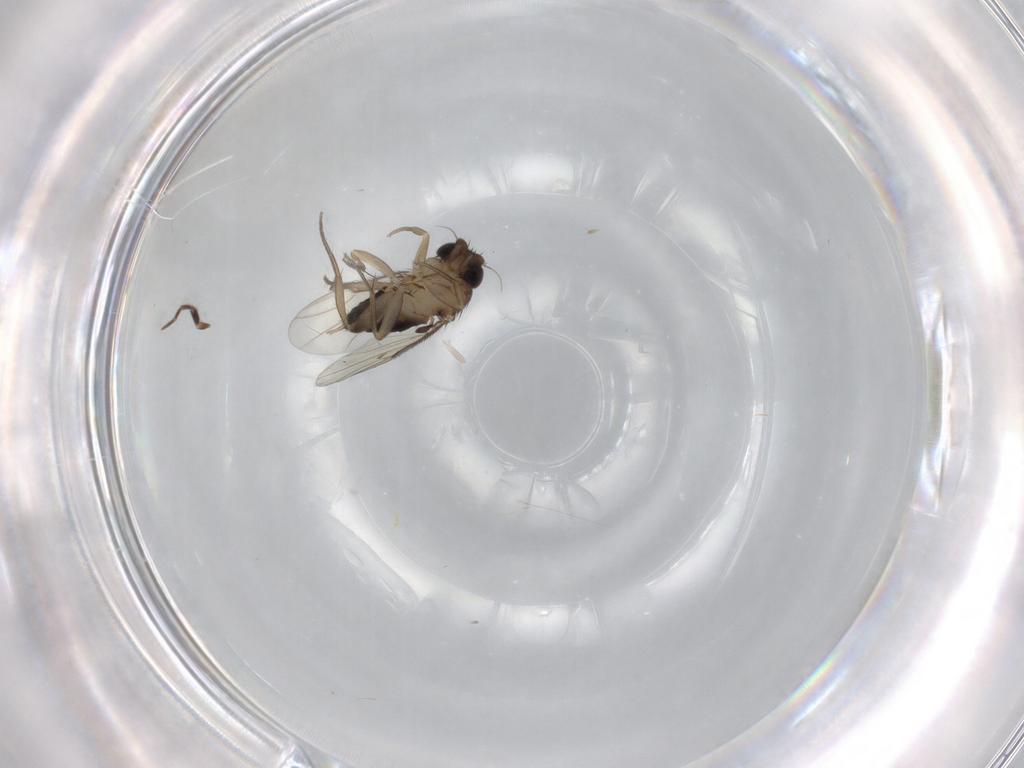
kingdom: Animalia
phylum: Arthropoda
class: Insecta
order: Diptera
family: Phoridae
